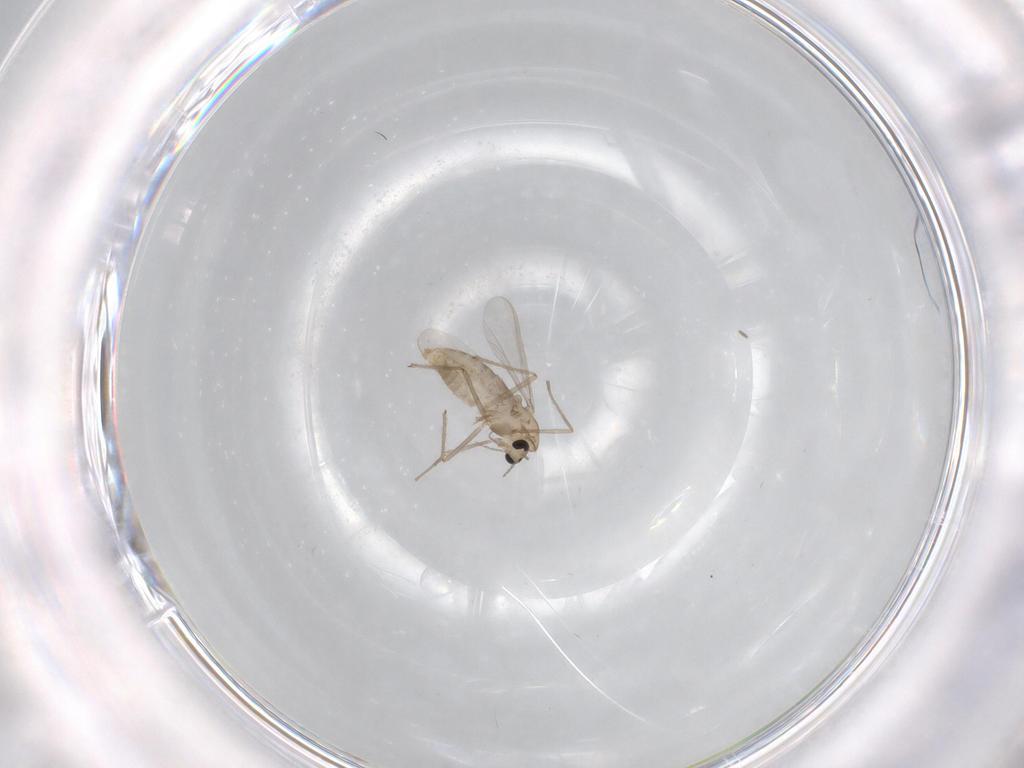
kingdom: Animalia
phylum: Arthropoda
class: Insecta
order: Diptera
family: Chironomidae
